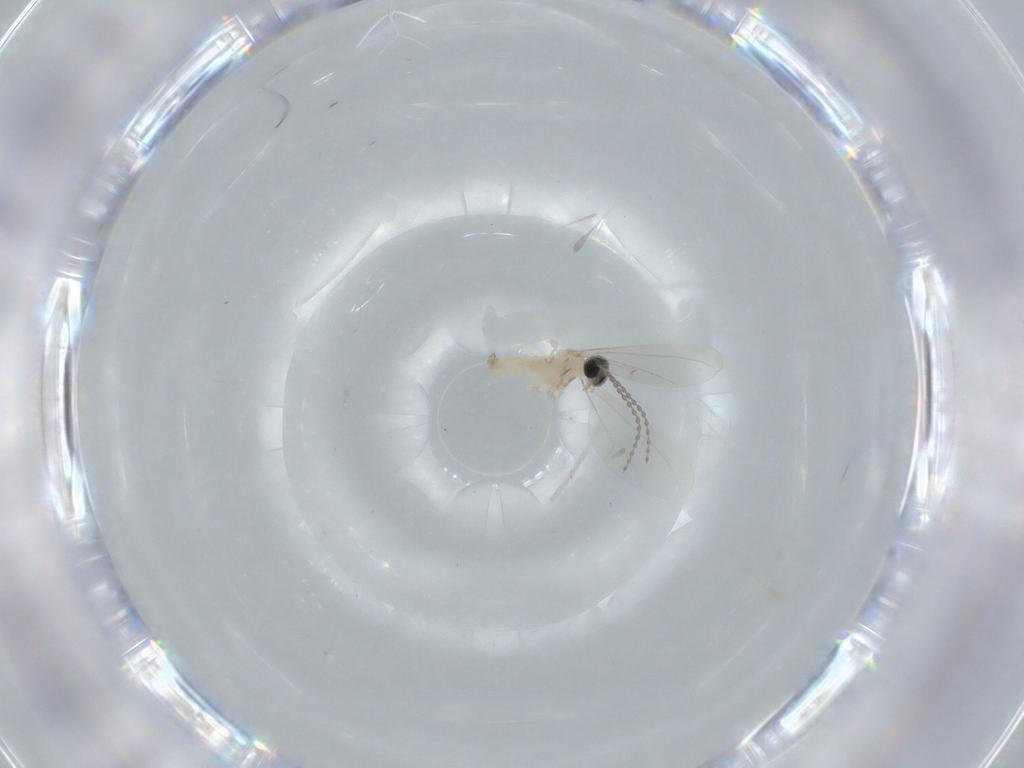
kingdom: Animalia
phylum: Arthropoda
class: Insecta
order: Diptera
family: Cecidomyiidae
